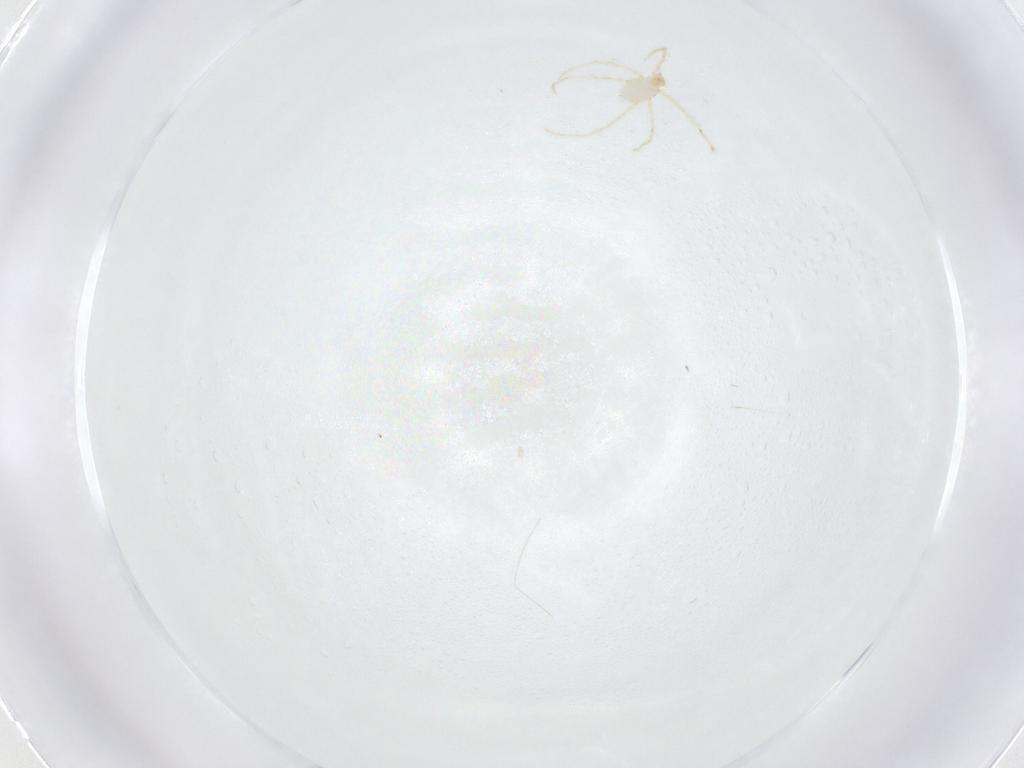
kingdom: Animalia
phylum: Arthropoda
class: Arachnida
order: Trombidiformes
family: Erythraeidae
